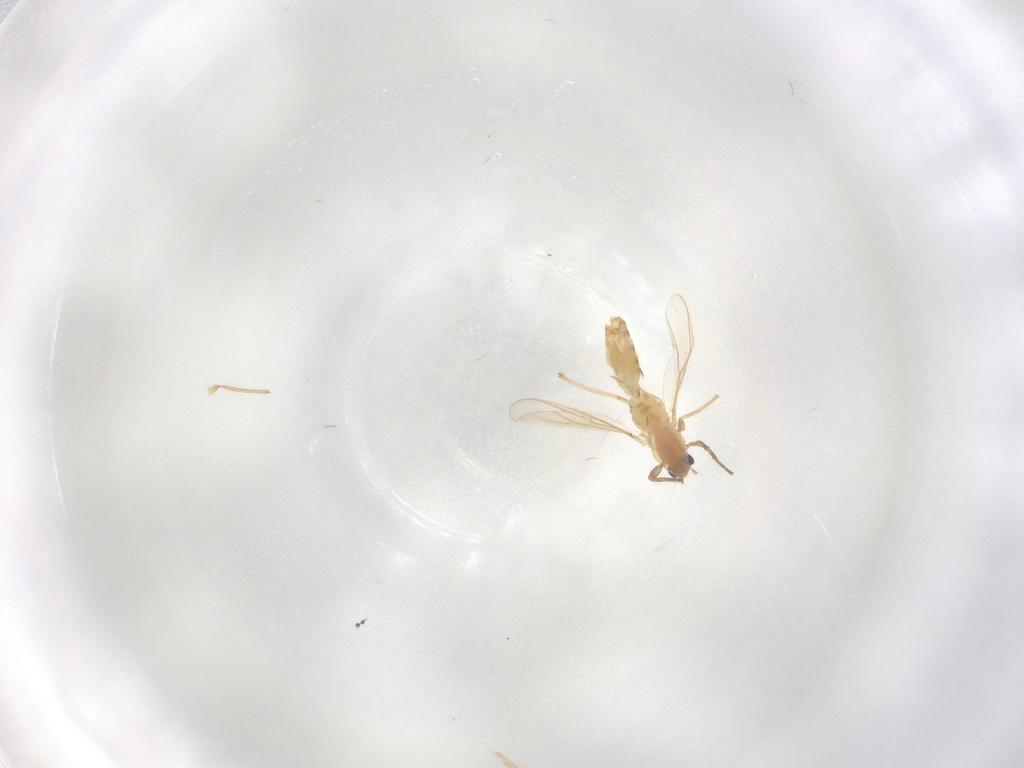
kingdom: Animalia
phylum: Arthropoda
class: Insecta
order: Diptera
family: Chironomidae
